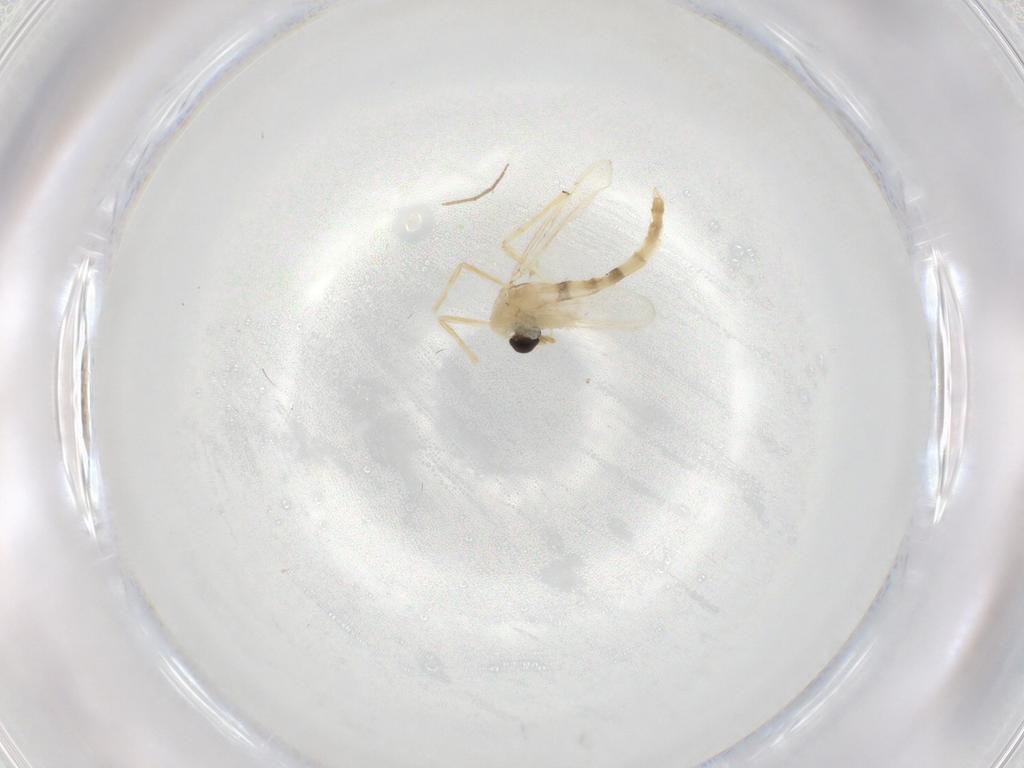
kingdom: Animalia
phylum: Arthropoda
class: Insecta
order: Diptera
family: Chironomidae
